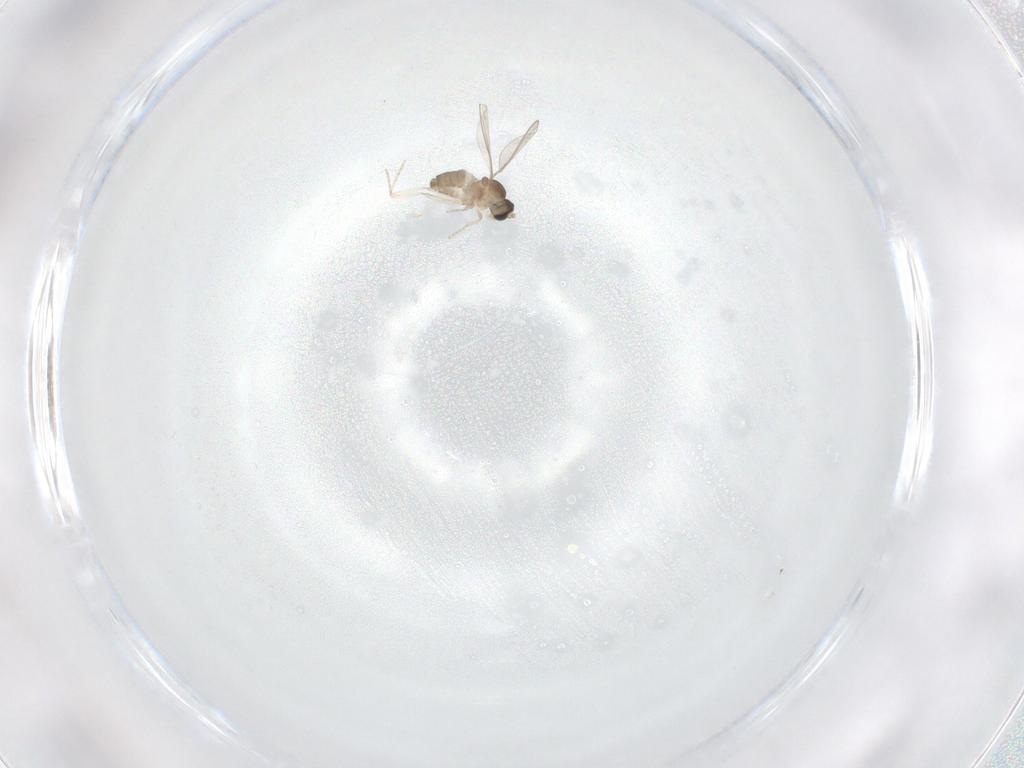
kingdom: Animalia
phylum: Arthropoda
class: Insecta
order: Diptera
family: Cecidomyiidae
